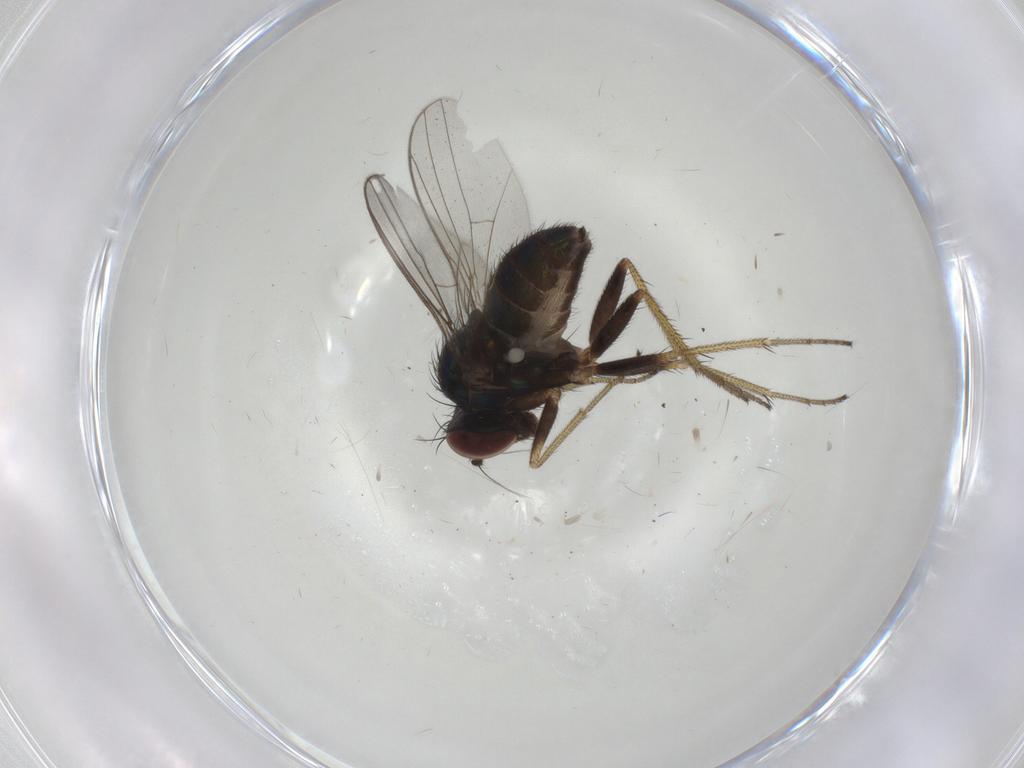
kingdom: Animalia
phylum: Arthropoda
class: Insecta
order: Diptera
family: Dolichopodidae
